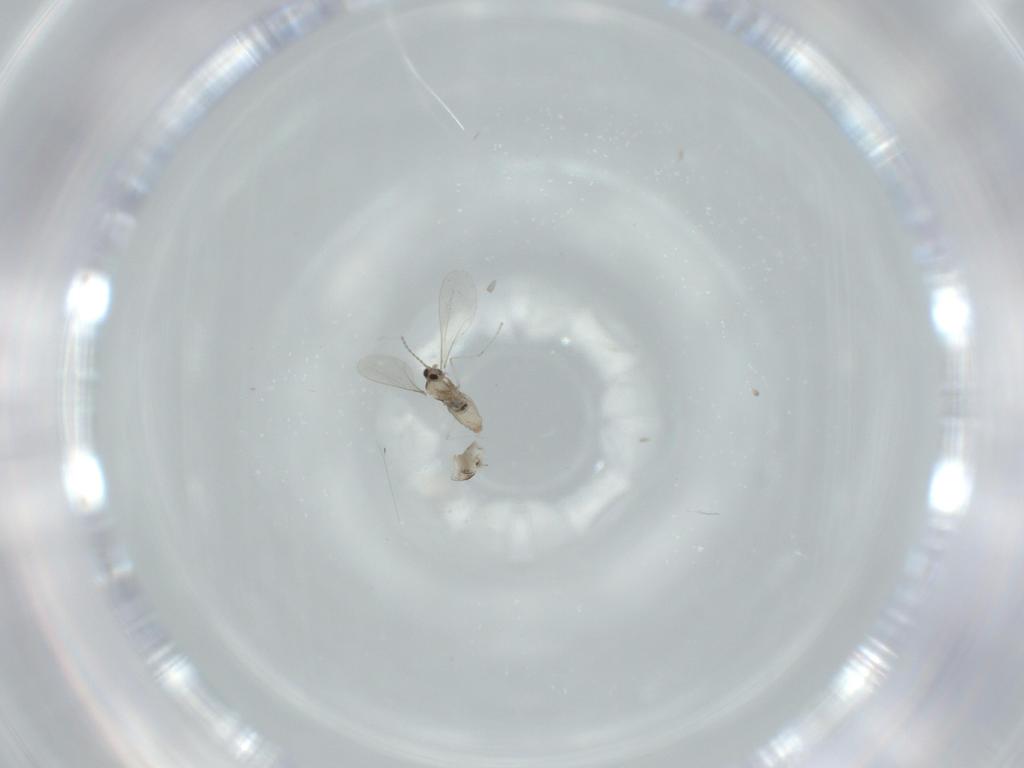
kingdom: Animalia
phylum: Arthropoda
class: Insecta
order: Diptera
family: Cecidomyiidae
